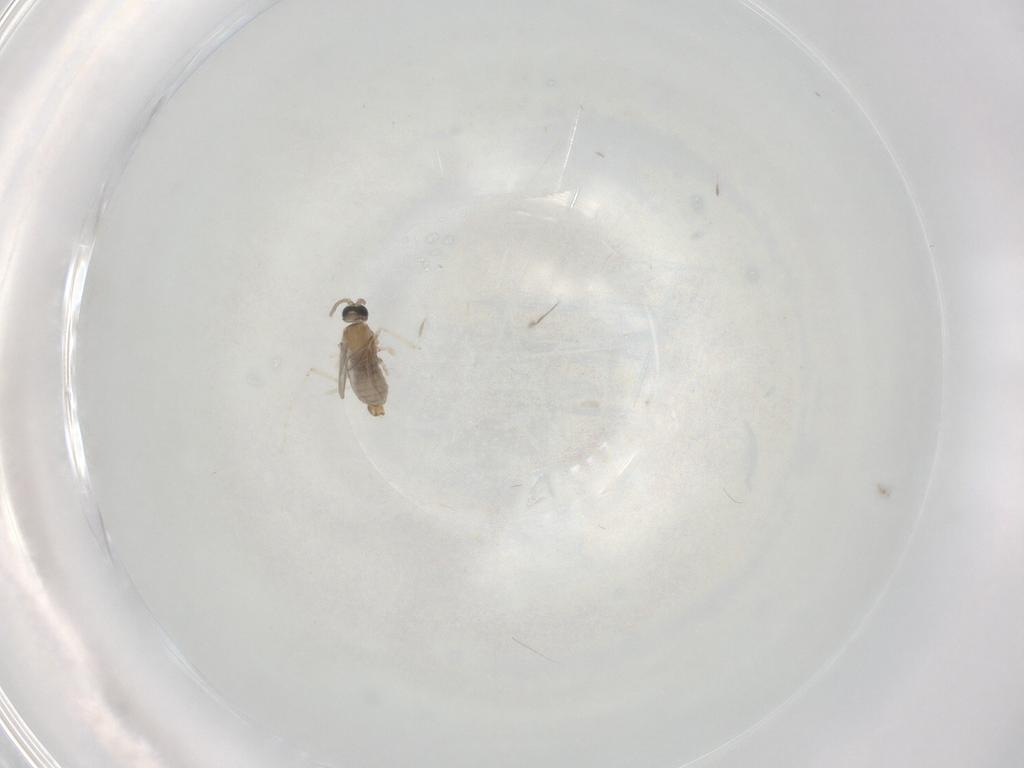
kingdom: Animalia
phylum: Arthropoda
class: Insecta
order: Diptera
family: Cecidomyiidae
